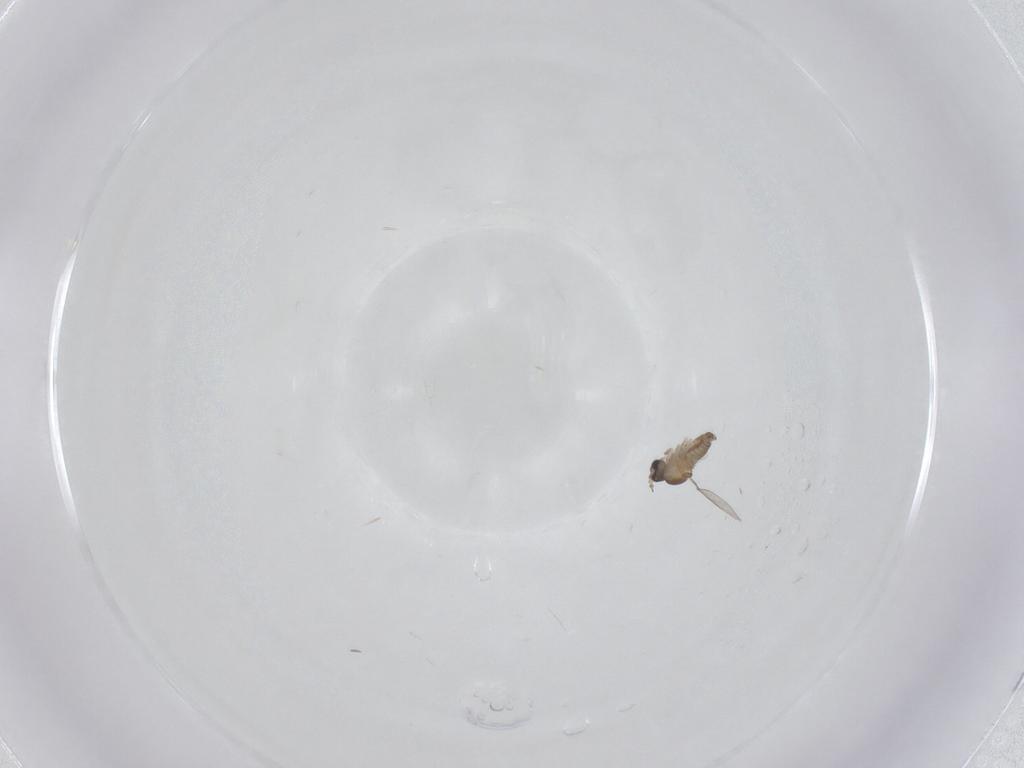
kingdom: Animalia
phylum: Arthropoda
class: Insecta
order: Diptera
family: Cecidomyiidae
